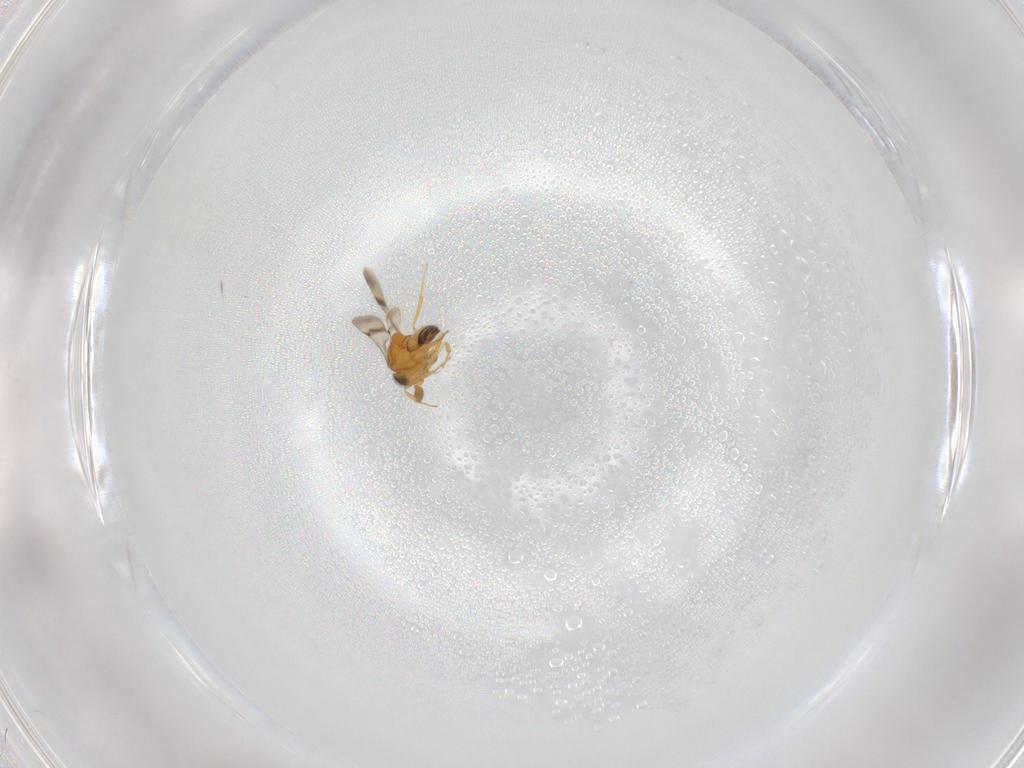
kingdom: Animalia
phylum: Arthropoda
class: Insecta
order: Hymenoptera
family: Scelionidae
